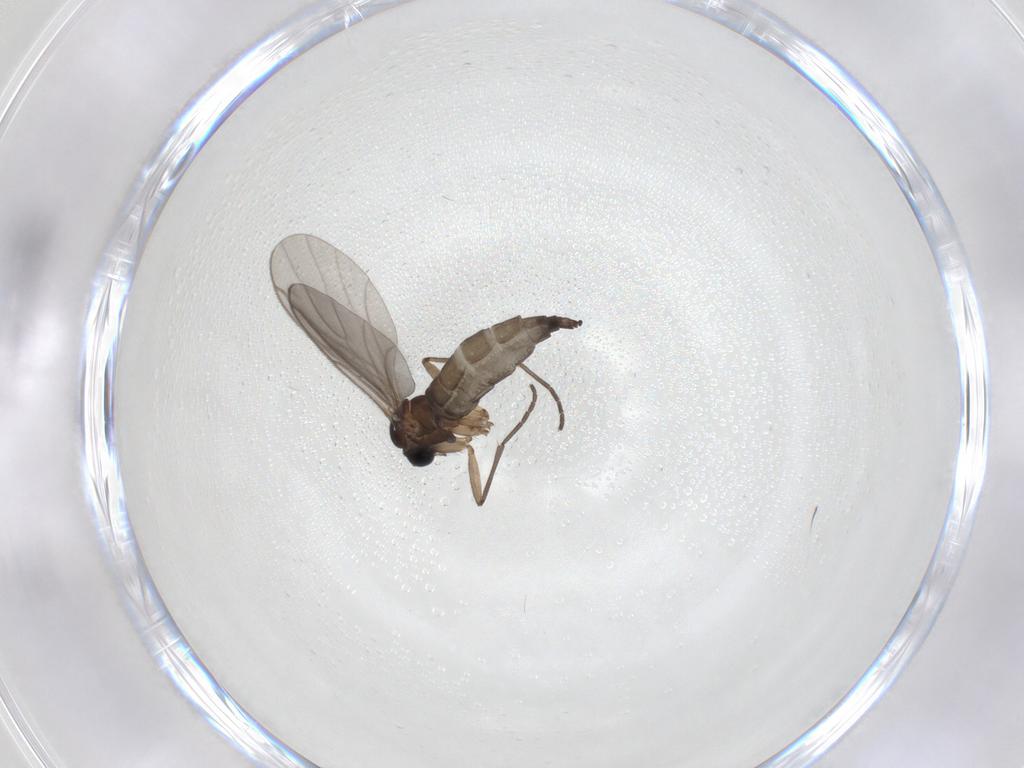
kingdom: Animalia
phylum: Arthropoda
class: Insecta
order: Diptera
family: Sciaridae
